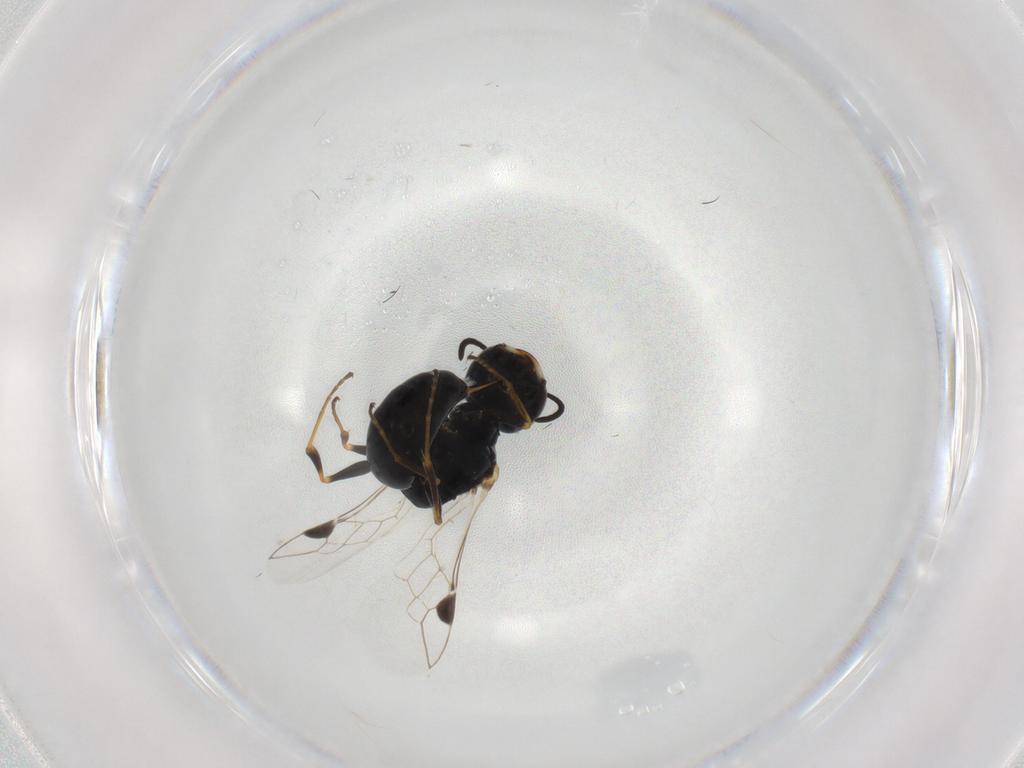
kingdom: Animalia
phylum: Arthropoda
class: Insecta
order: Hymenoptera
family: Crabronidae
